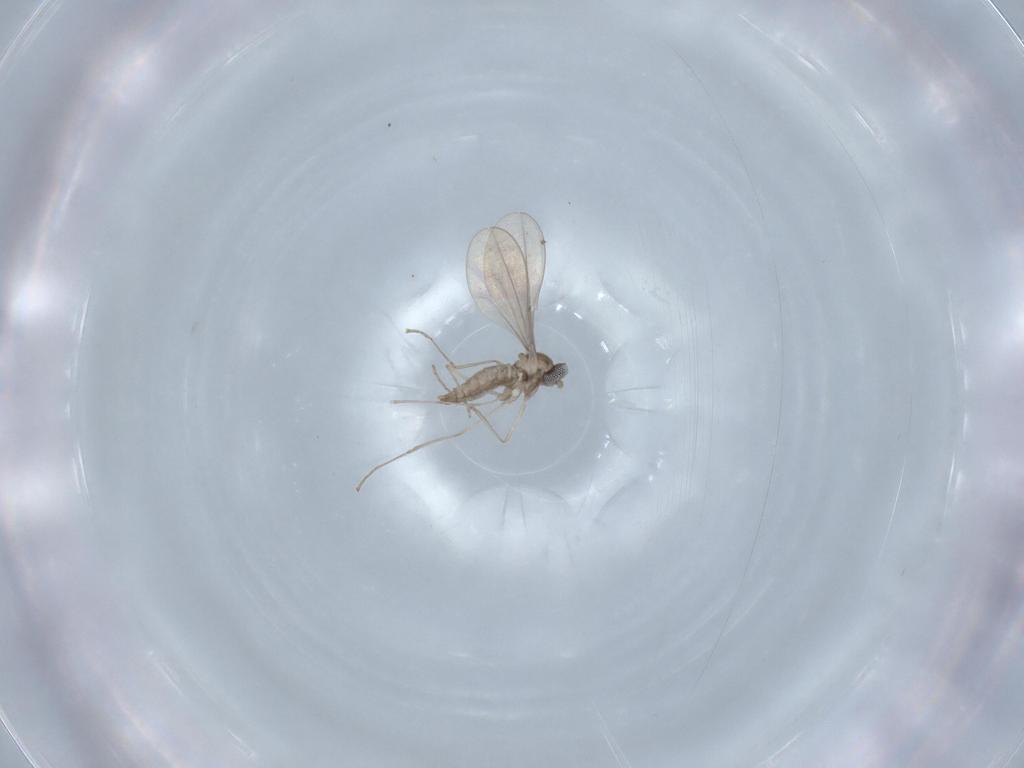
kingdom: Animalia
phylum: Arthropoda
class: Insecta
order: Diptera
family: Cecidomyiidae
